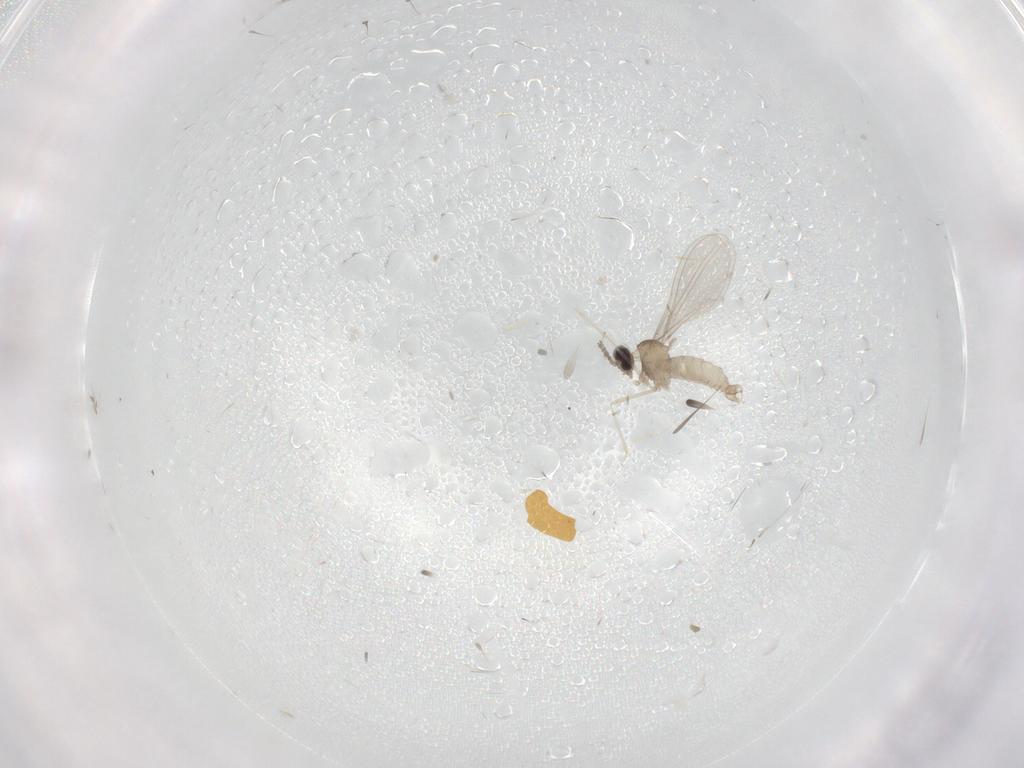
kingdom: Animalia
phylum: Arthropoda
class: Insecta
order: Diptera
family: Cecidomyiidae
